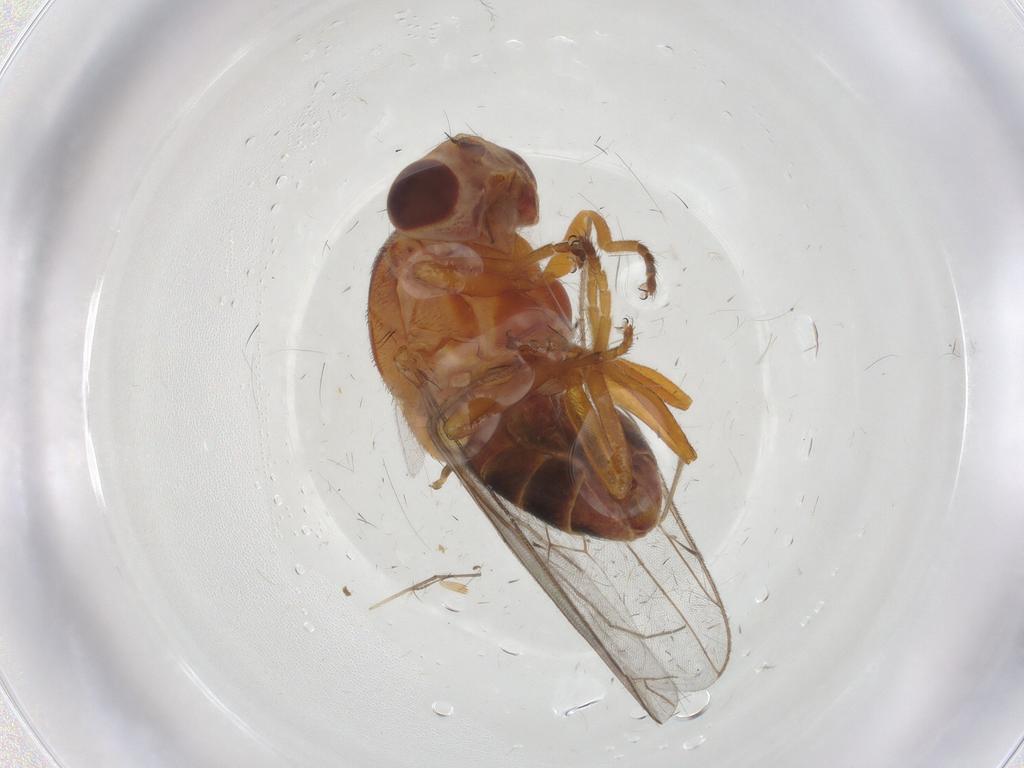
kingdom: Animalia
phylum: Arthropoda
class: Insecta
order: Diptera
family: Chloropidae
